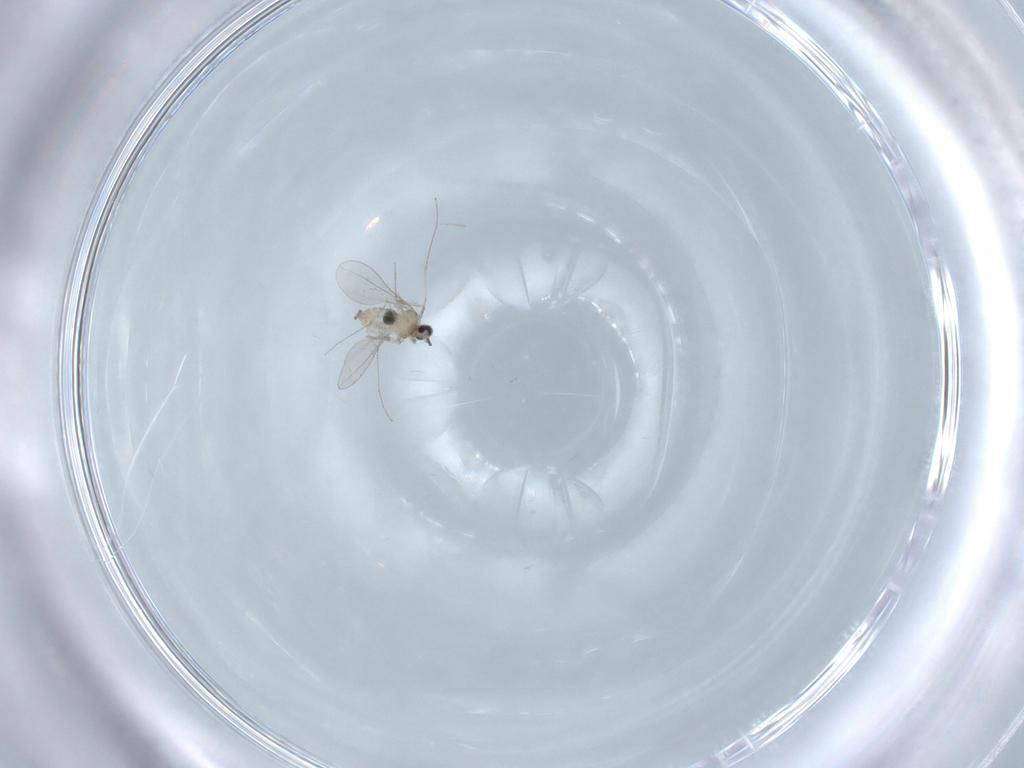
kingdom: Animalia
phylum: Arthropoda
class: Insecta
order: Diptera
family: Cecidomyiidae
